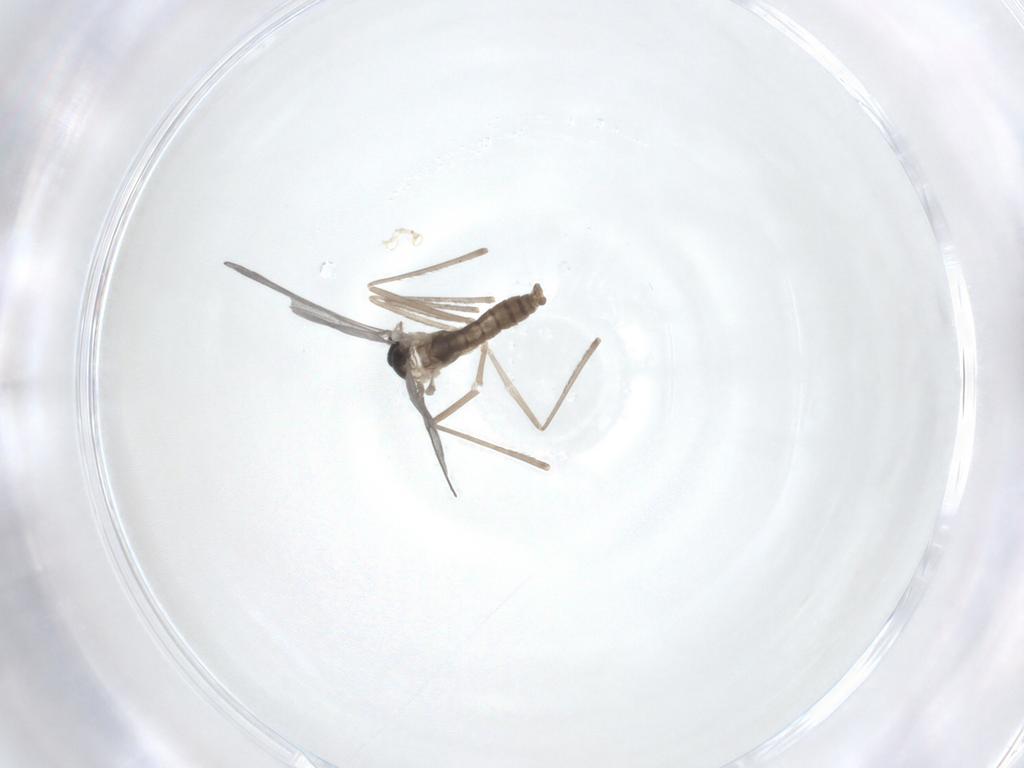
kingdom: Animalia
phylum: Arthropoda
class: Insecta
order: Diptera
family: Cecidomyiidae
